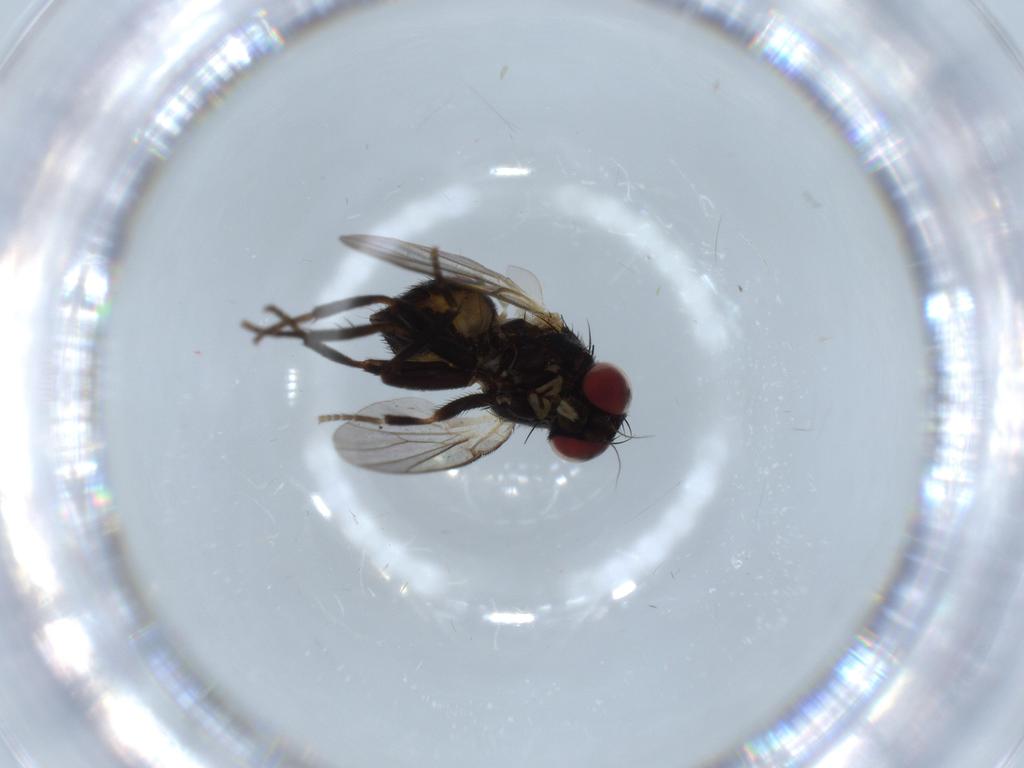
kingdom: Animalia
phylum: Arthropoda
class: Insecta
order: Diptera
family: Agromyzidae
